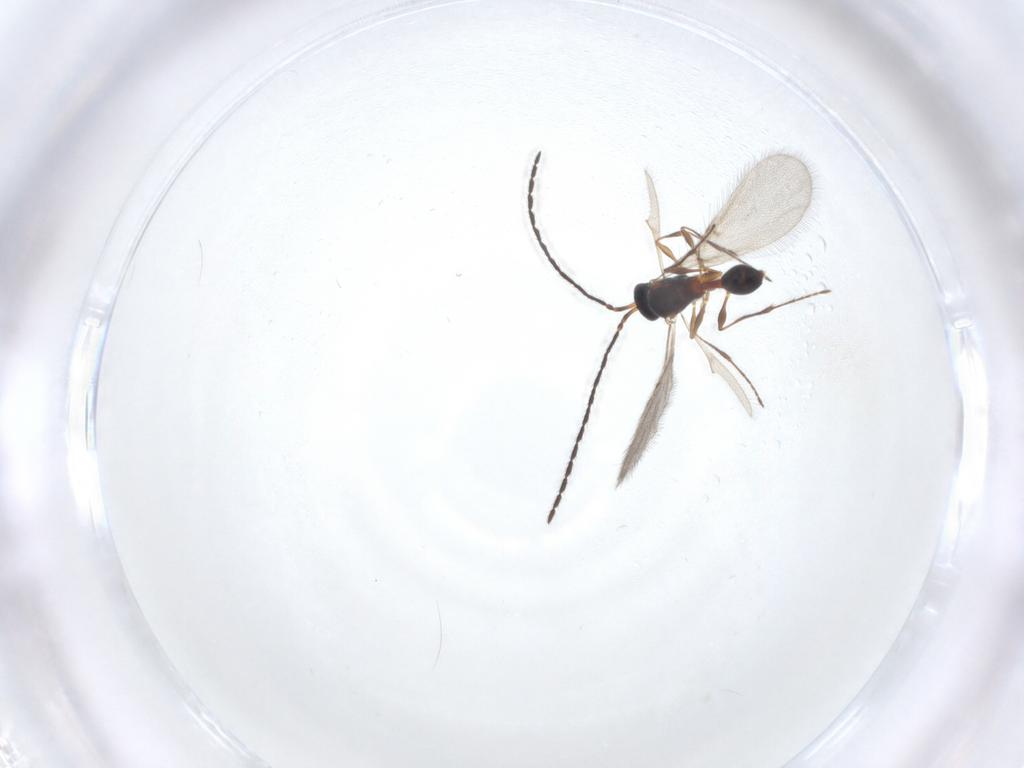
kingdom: Animalia
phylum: Arthropoda
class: Insecta
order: Hymenoptera
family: Diapriidae
